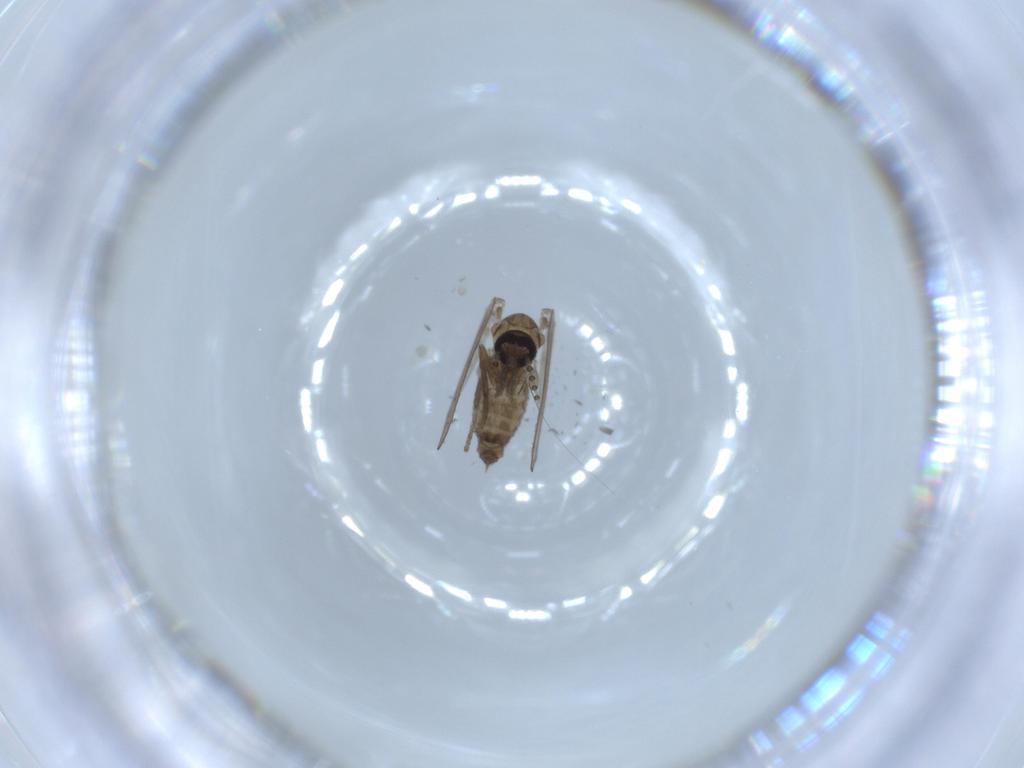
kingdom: Animalia
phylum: Arthropoda
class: Insecta
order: Diptera
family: Psychodidae
